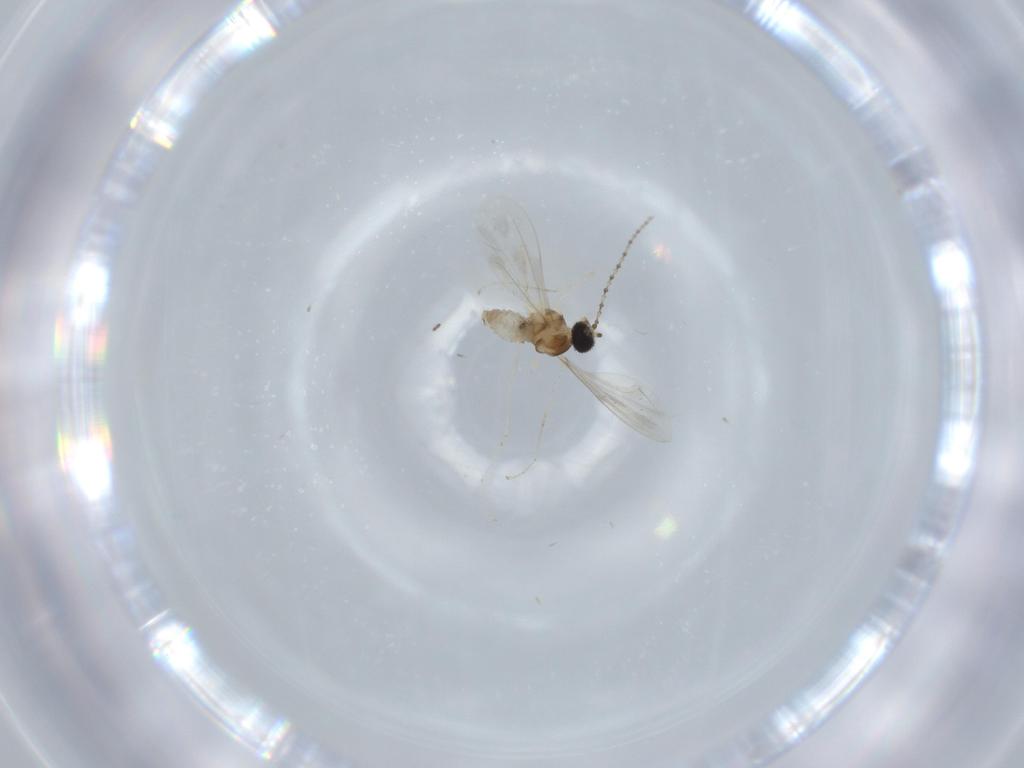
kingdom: Animalia
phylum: Arthropoda
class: Insecta
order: Diptera
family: Cecidomyiidae
